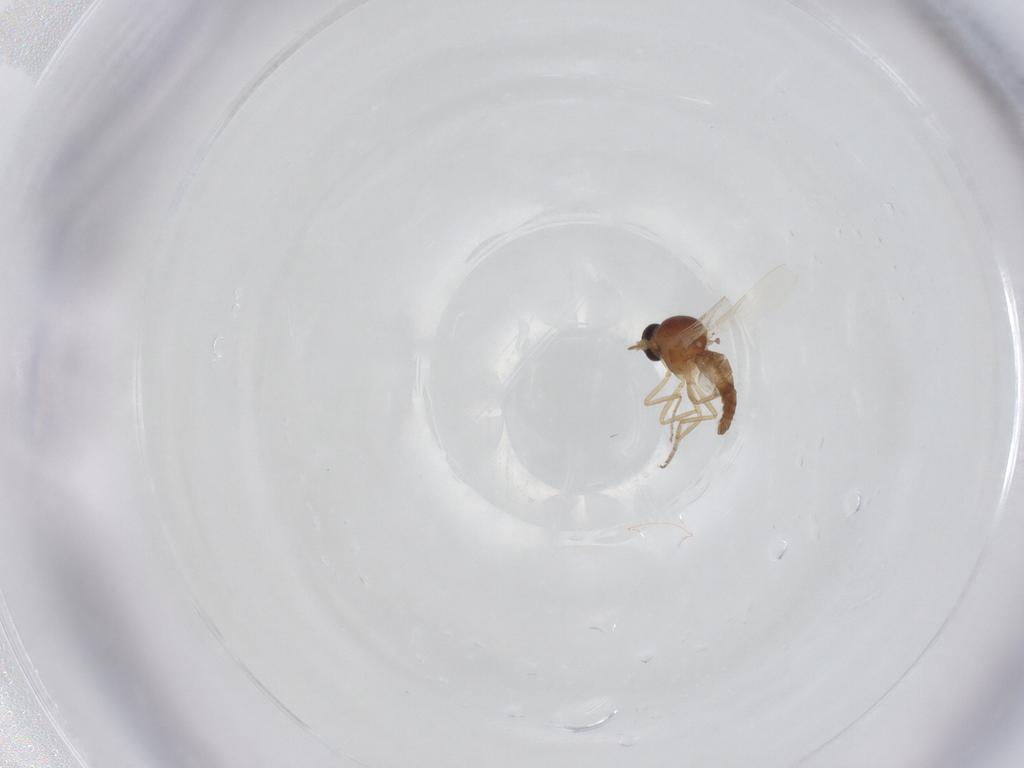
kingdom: Animalia
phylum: Arthropoda
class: Insecta
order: Diptera
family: Ceratopogonidae
